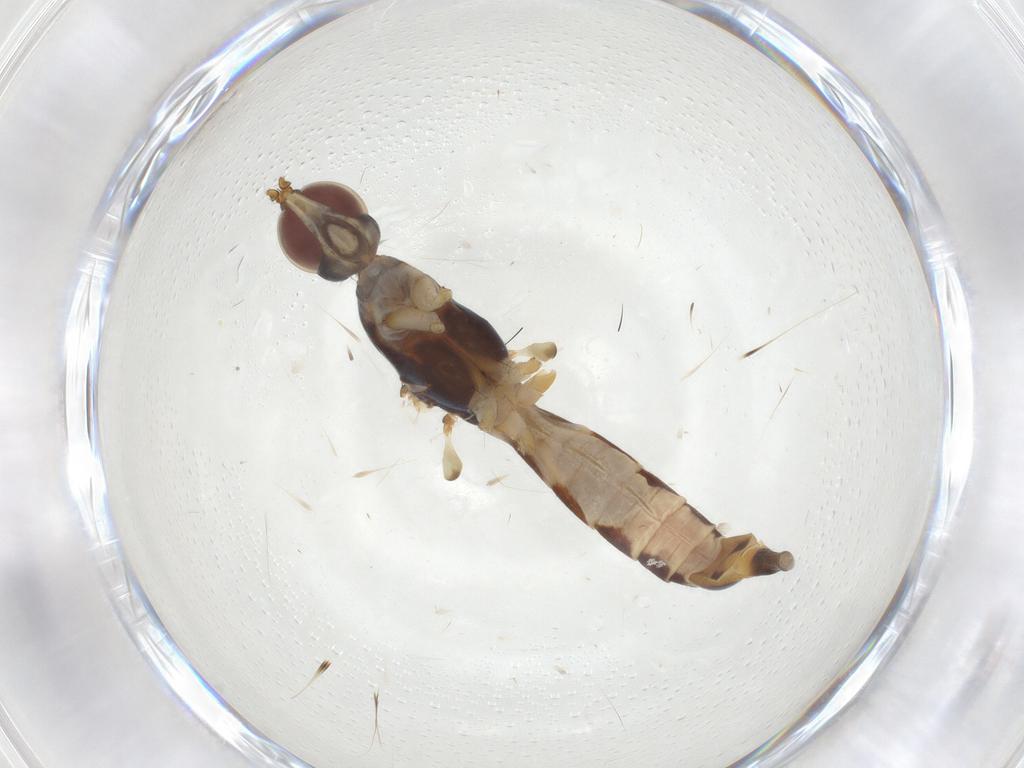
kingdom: Animalia
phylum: Arthropoda
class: Insecta
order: Diptera
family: Micropezidae
